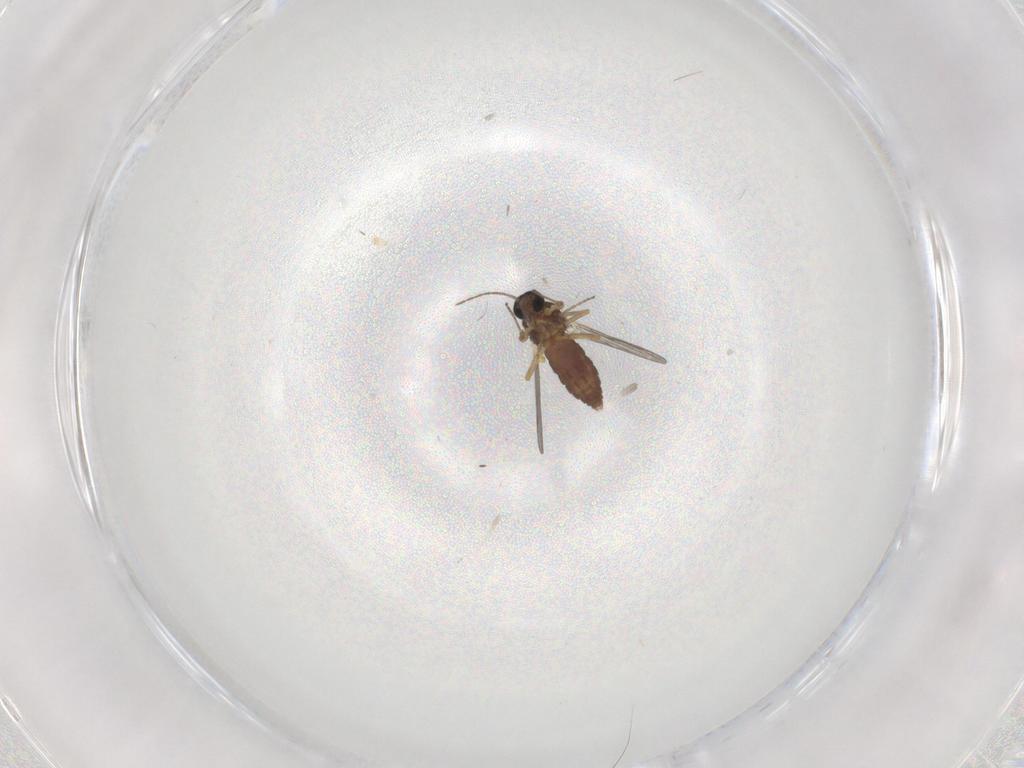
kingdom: Animalia
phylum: Arthropoda
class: Insecta
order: Diptera
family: Ceratopogonidae
